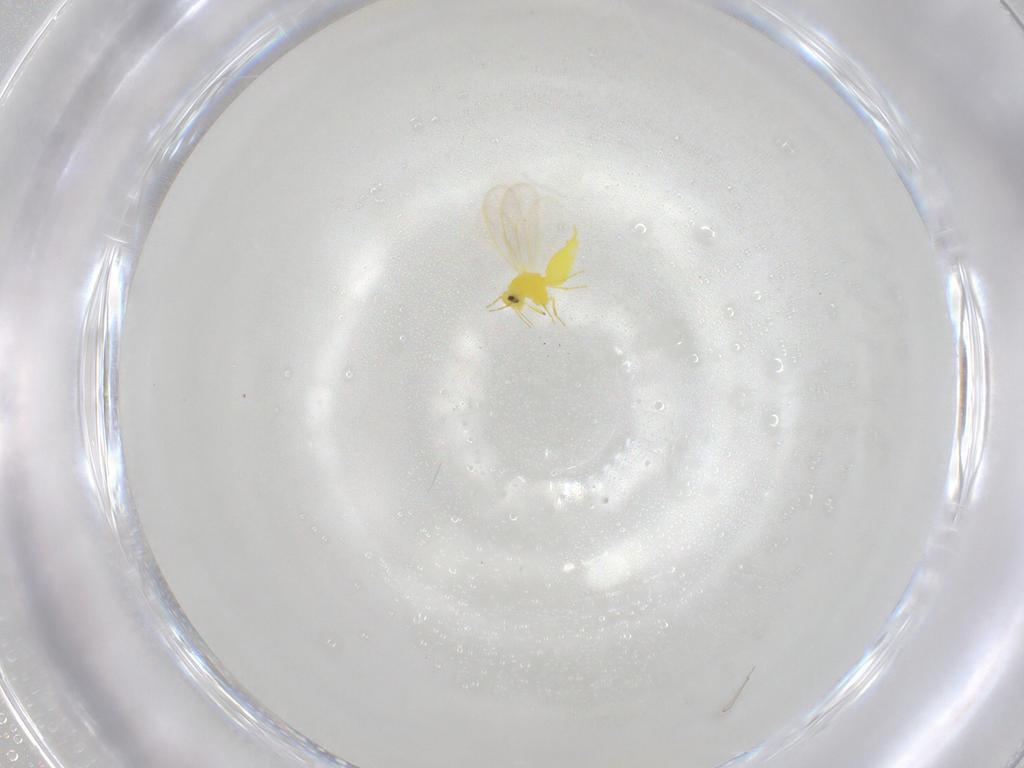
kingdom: Animalia
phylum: Arthropoda
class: Insecta
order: Hemiptera
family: Aleyrodidae
